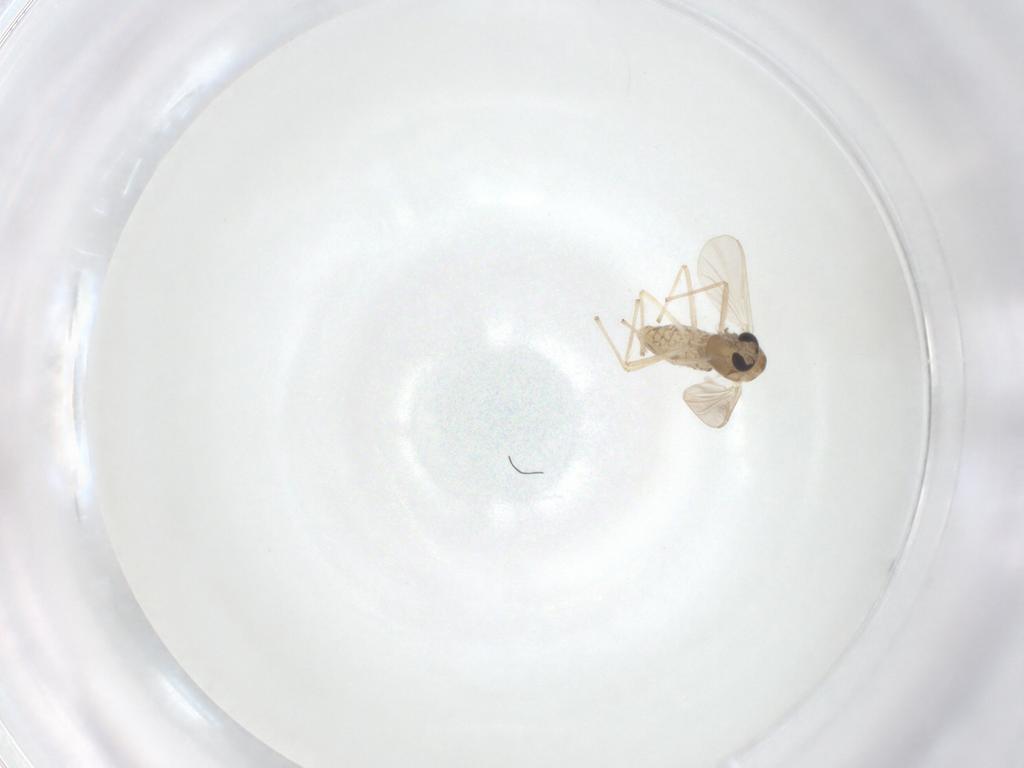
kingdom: Animalia
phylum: Arthropoda
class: Insecta
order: Diptera
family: Chironomidae
